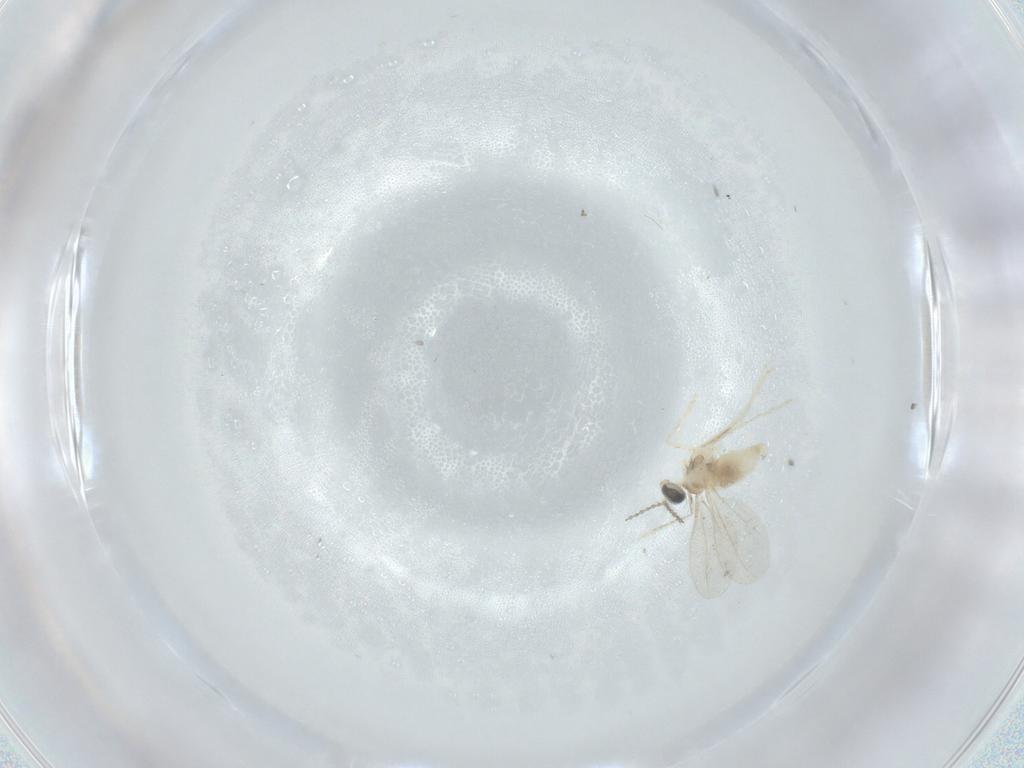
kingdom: Animalia
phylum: Arthropoda
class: Insecta
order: Diptera
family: Cecidomyiidae
